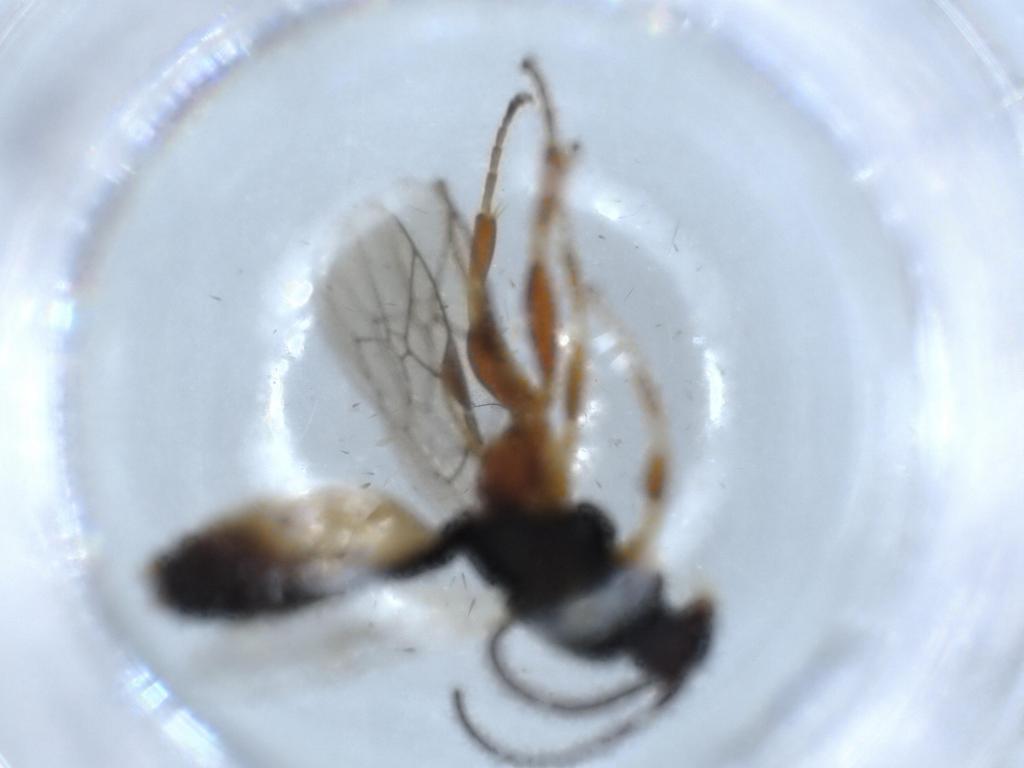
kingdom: Animalia
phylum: Arthropoda
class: Insecta
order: Hymenoptera
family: Ichneumonidae
